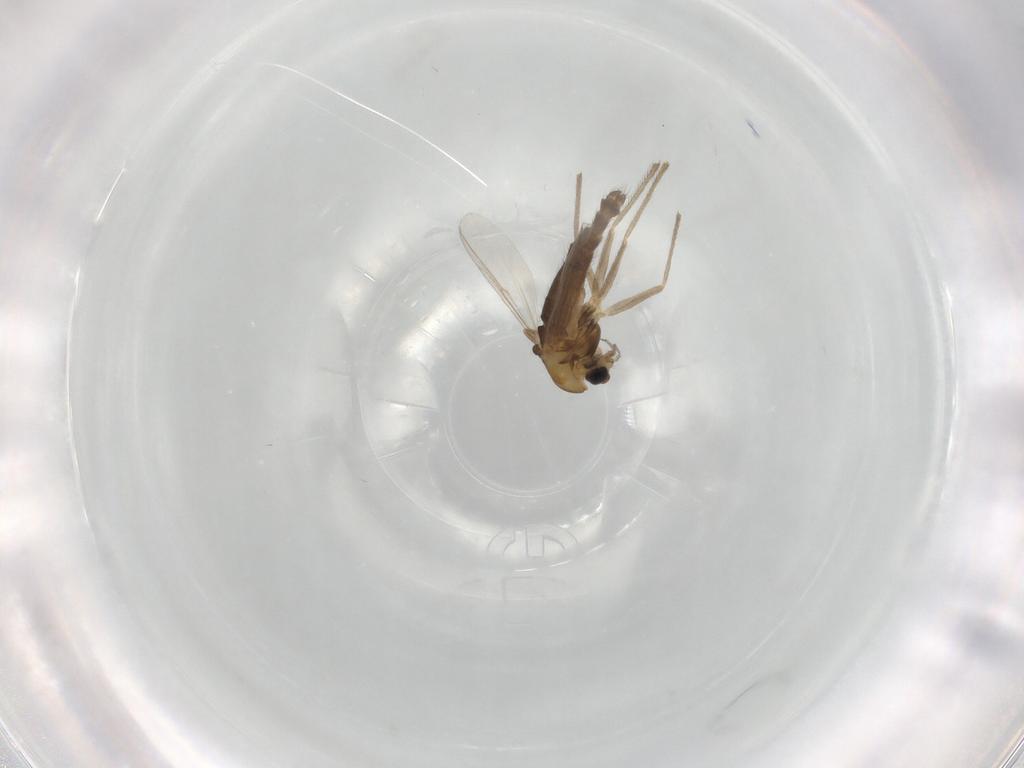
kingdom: Animalia
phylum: Arthropoda
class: Insecta
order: Diptera
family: Chironomidae
